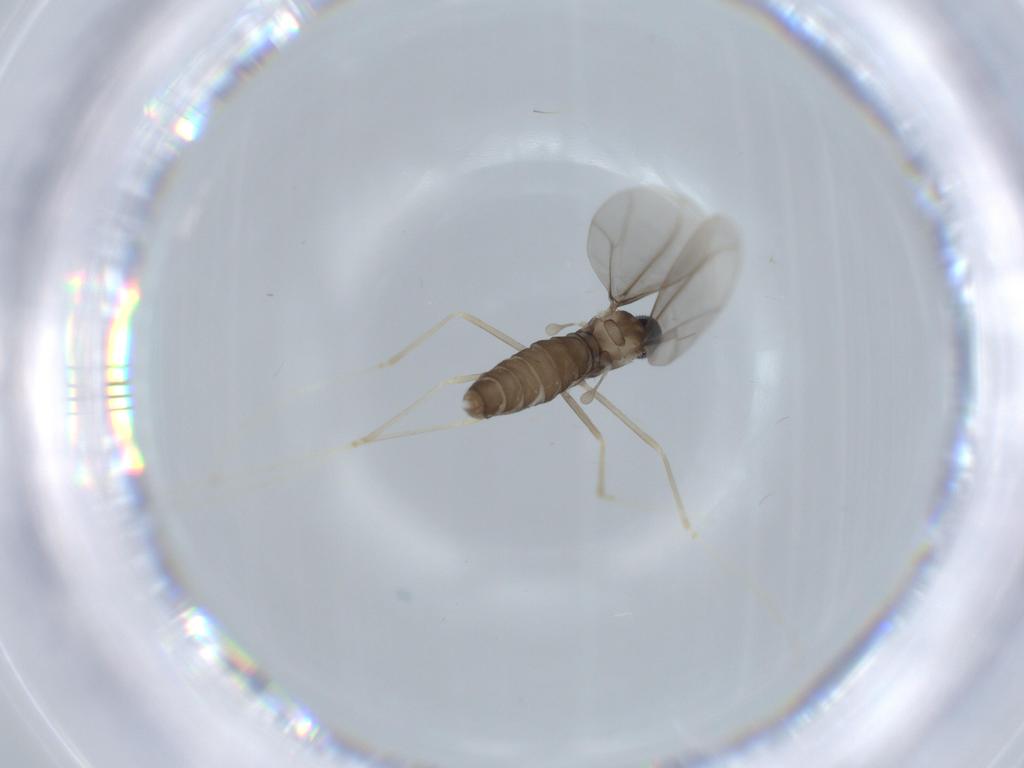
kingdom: Animalia
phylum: Arthropoda
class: Insecta
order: Diptera
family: Cecidomyiidae
